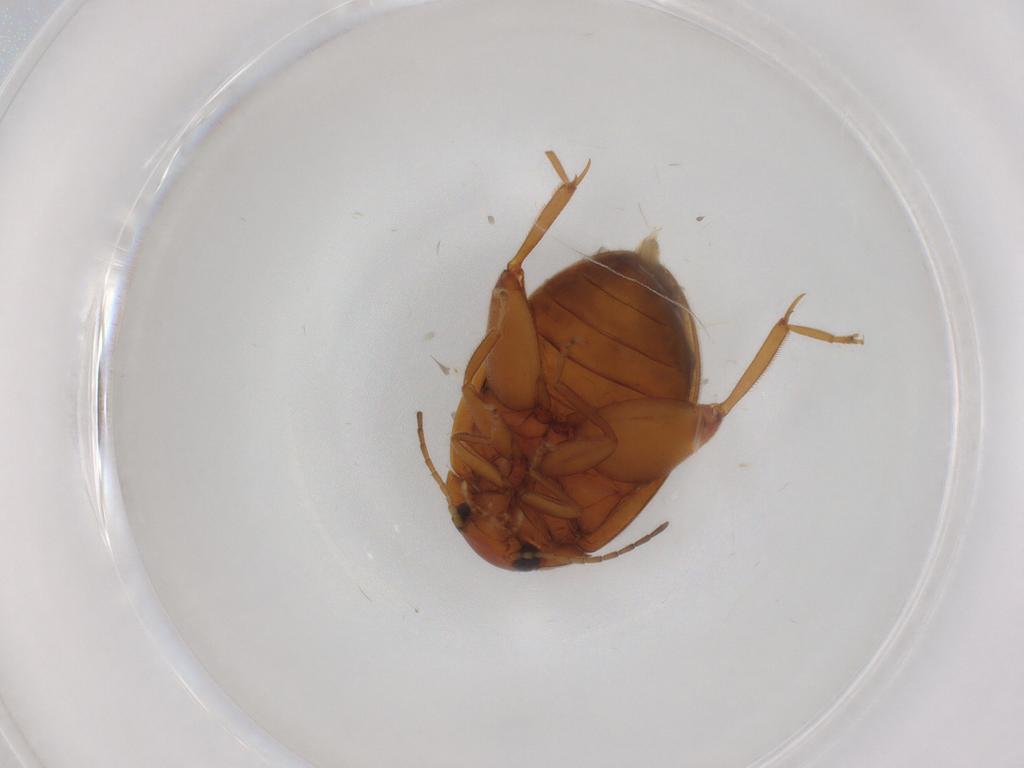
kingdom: Animalia
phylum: Arthropoda
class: Insecta
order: Coleoptera
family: Scirtidae
